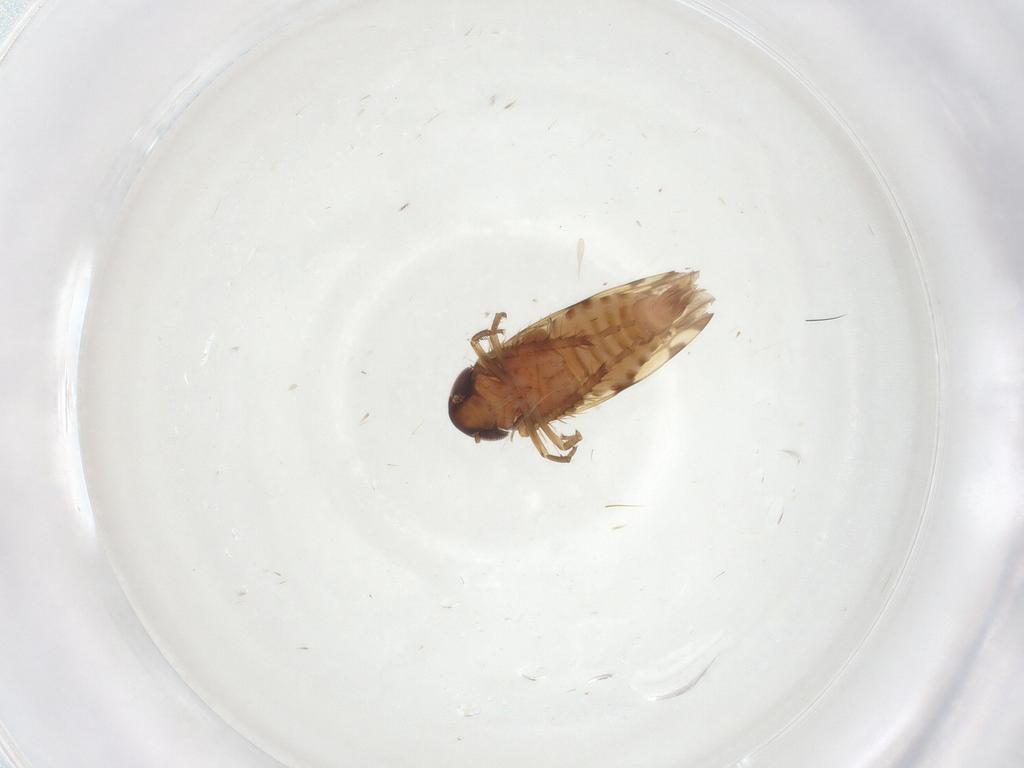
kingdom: Animalia
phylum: Arthropoda
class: Insecta
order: Hemiptera
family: Cicadellidae
